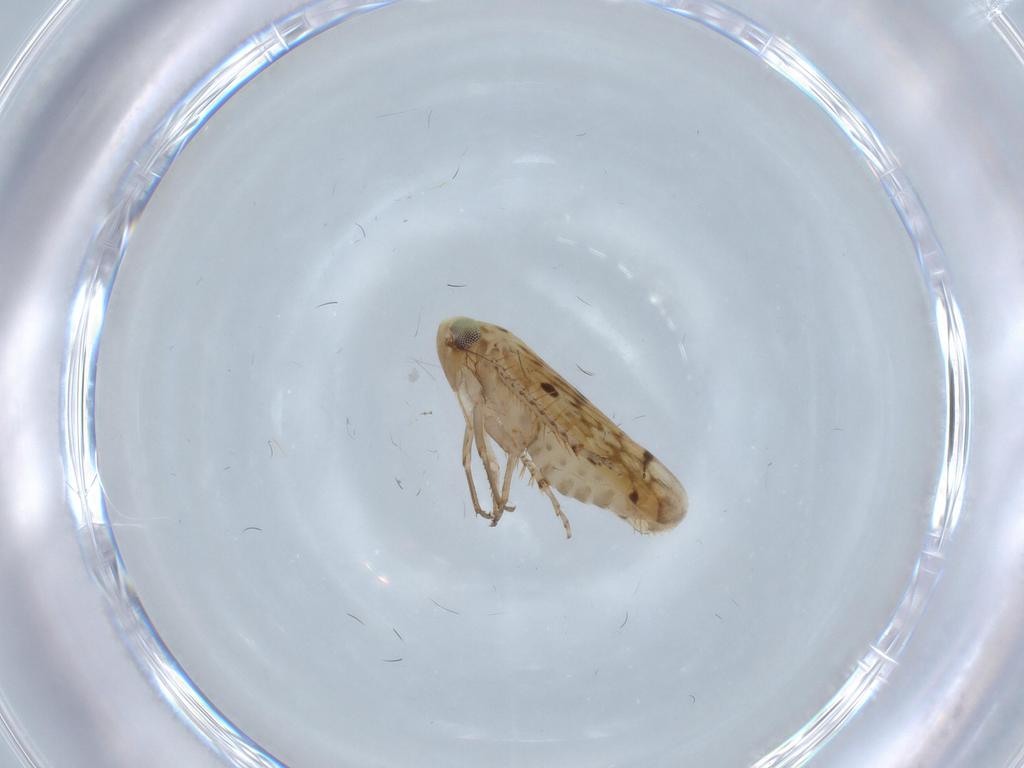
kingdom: Animalia
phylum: Arthropoda
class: Insecta
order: Hemiptera
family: Cicadellidae
